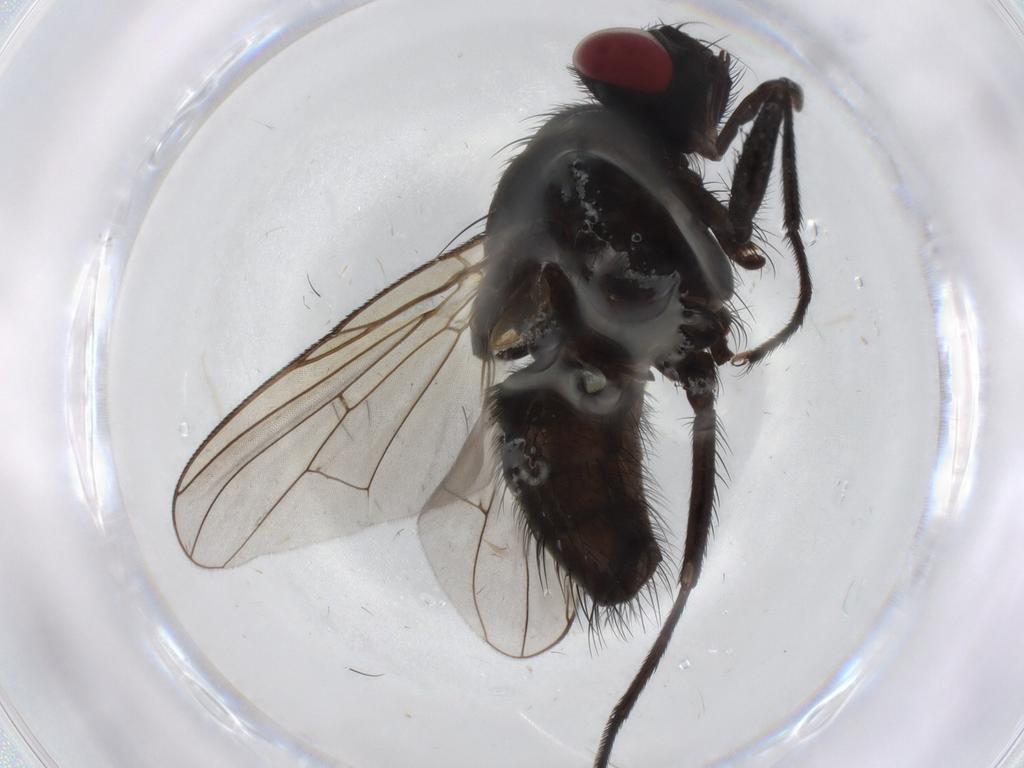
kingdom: Animalia
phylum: Arthropoda
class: Insecta
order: Diptera
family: Muscidae
